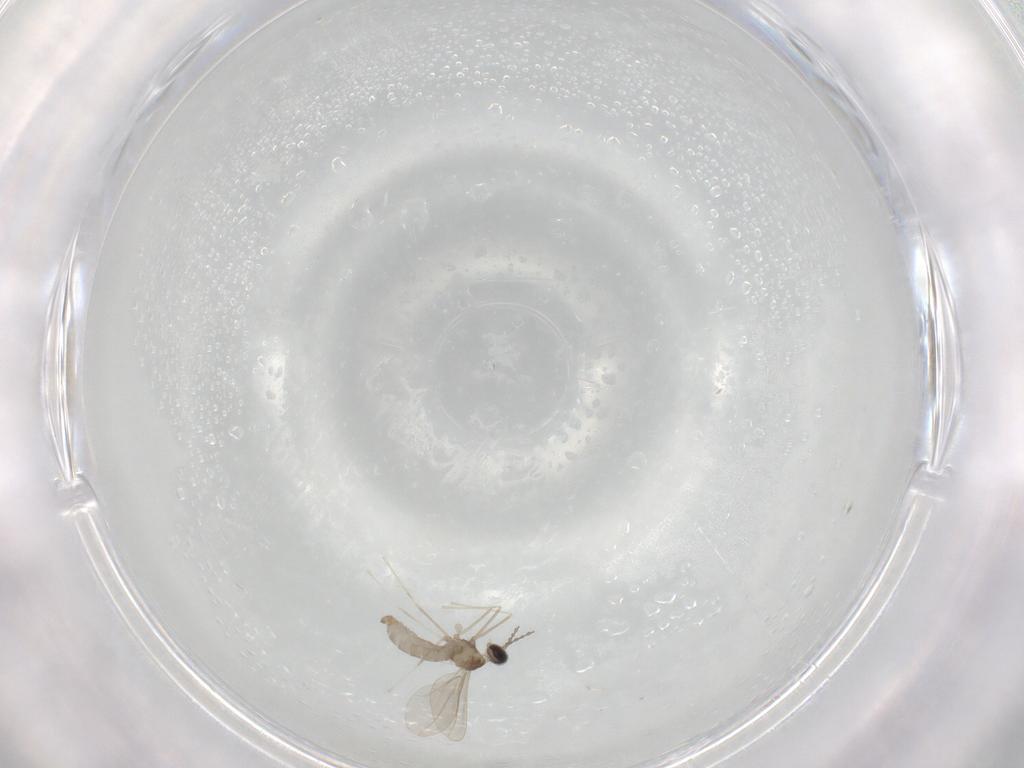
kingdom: Animalia
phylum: Arthropoda
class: Insecta
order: Diptera
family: Cecidomyiidae
